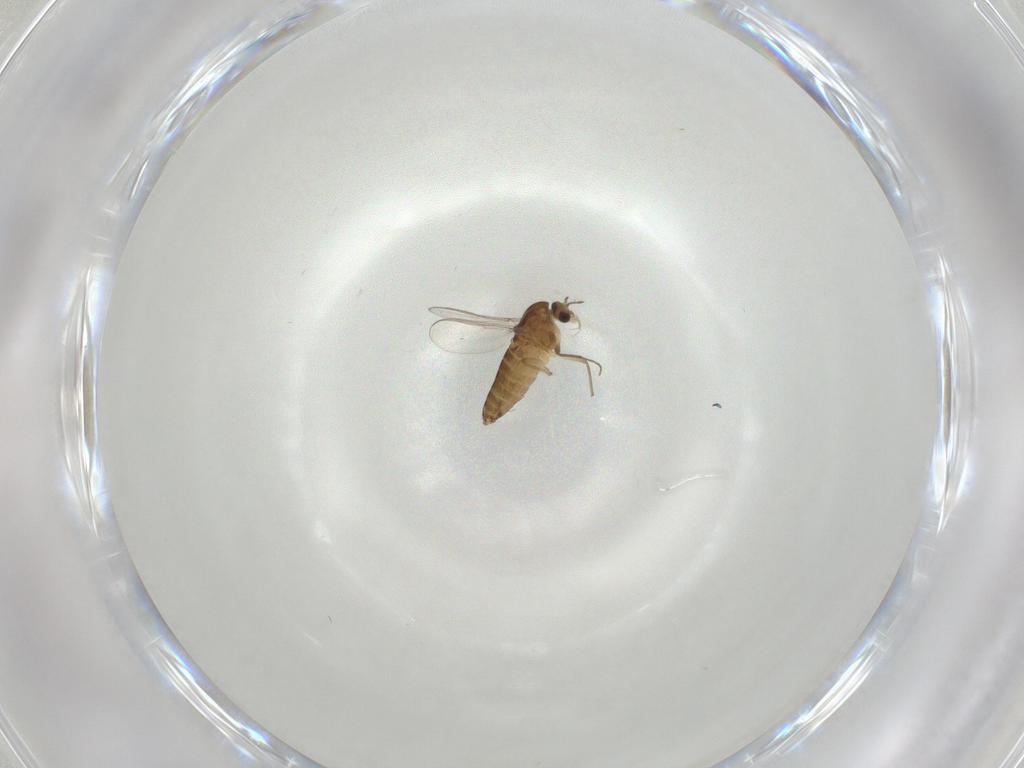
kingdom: Animalia
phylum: Arthropoda
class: Insecta
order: Diptera
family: Chironomidae
